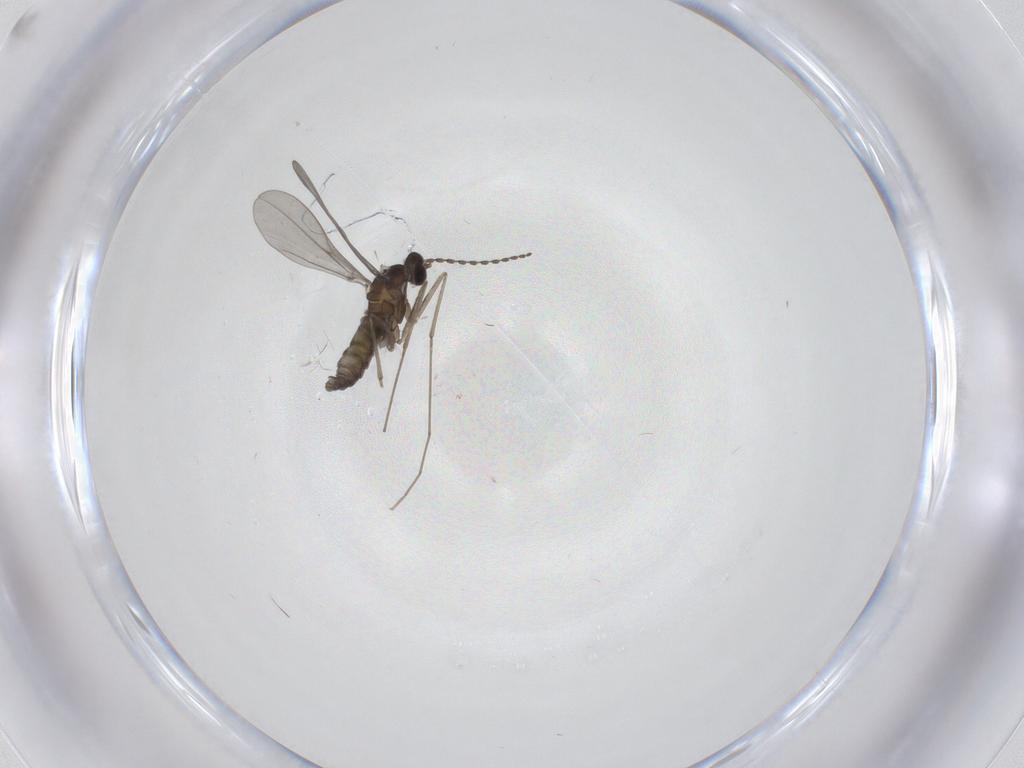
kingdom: Animalia
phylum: Arthropoda
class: Insecta
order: Diptera
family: Cecidomyiidae
